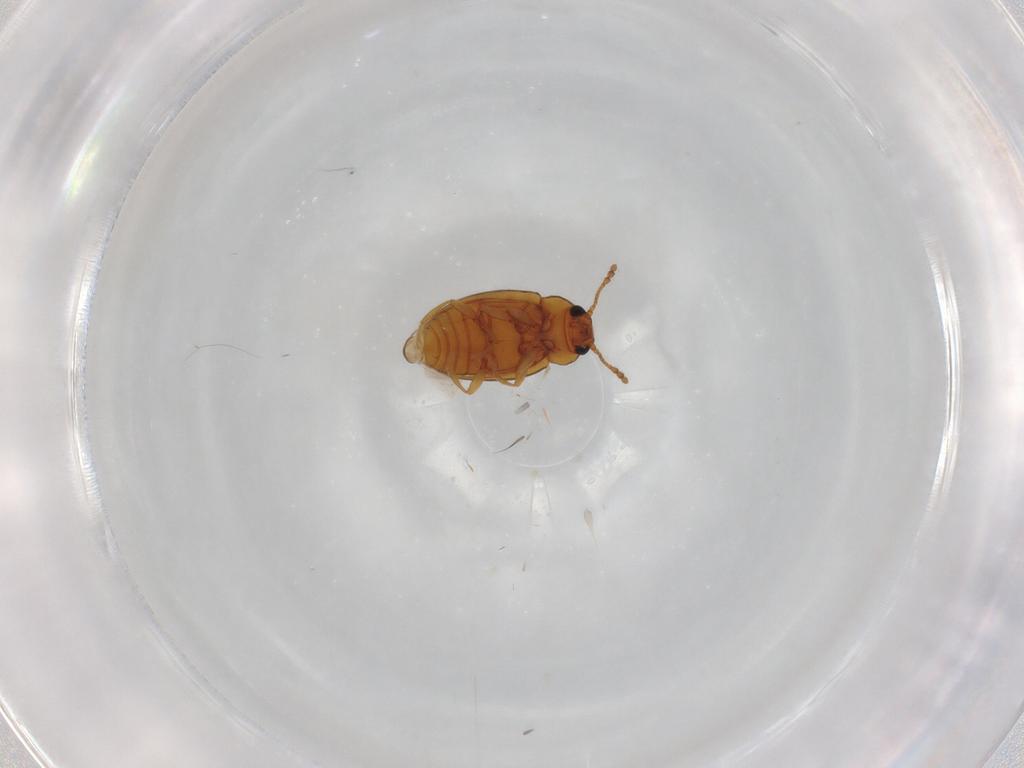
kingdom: Animalia
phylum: Arthropoda
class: Insecta
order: Coleoptera
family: Erotylidae
